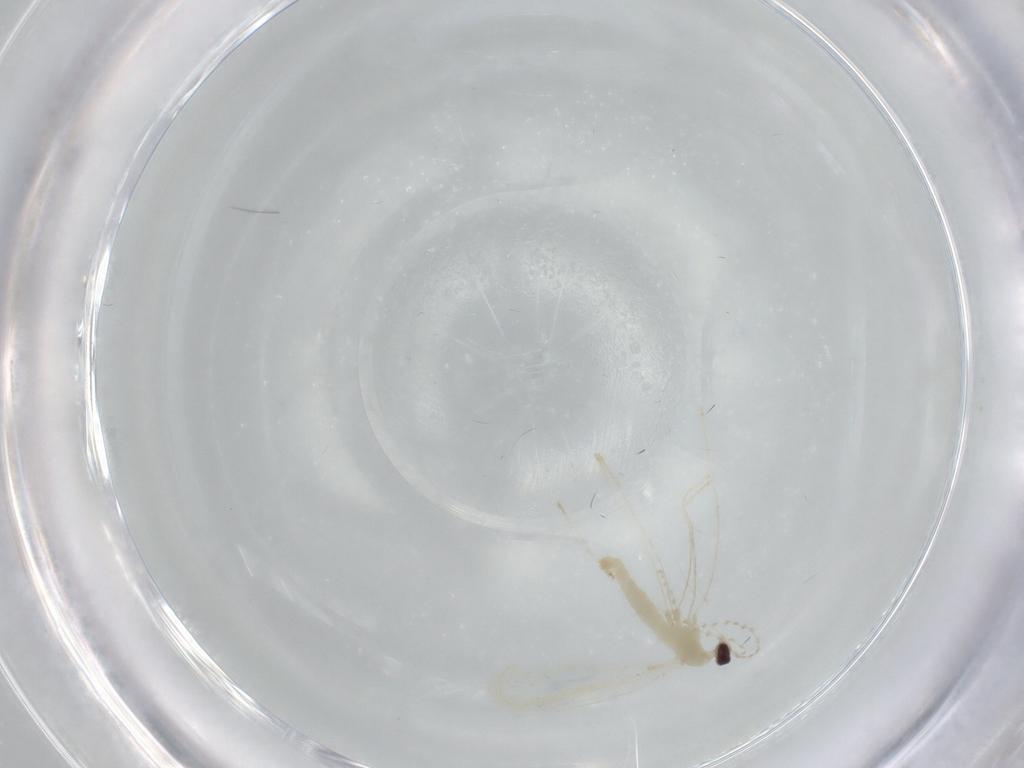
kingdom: Animalia
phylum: Arthropoda
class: Insecta
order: Diptera
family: Cecidomyiidae
